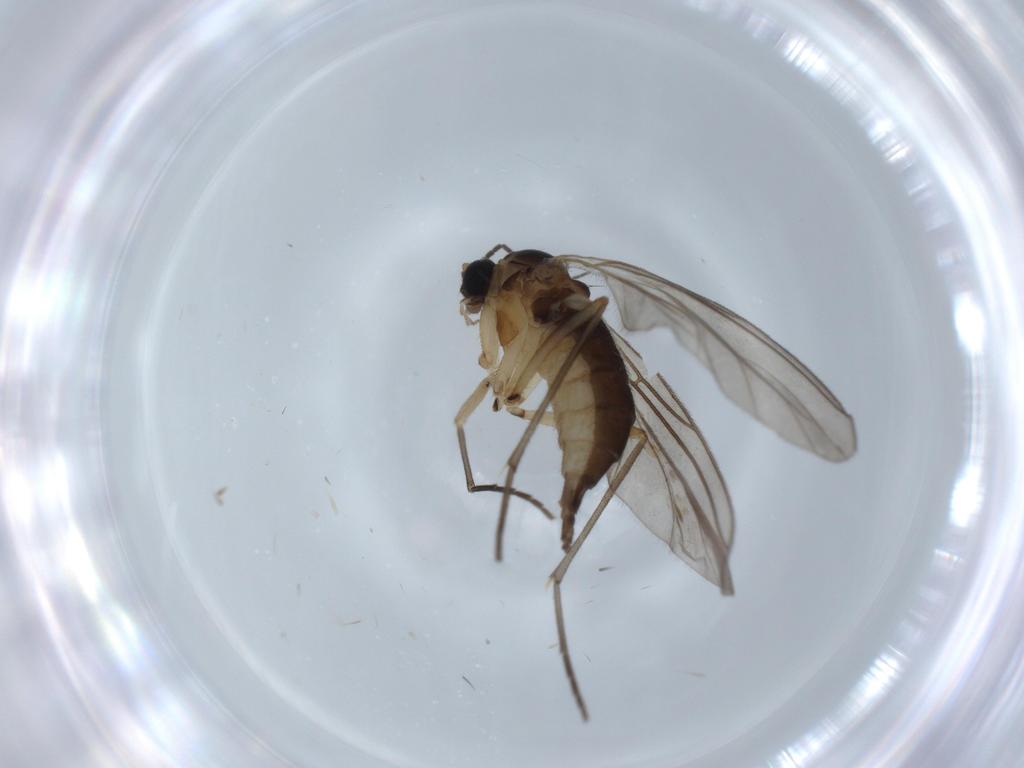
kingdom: Animalia
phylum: Arthropoda
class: Insecta
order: Diptera
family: Sciaridae
